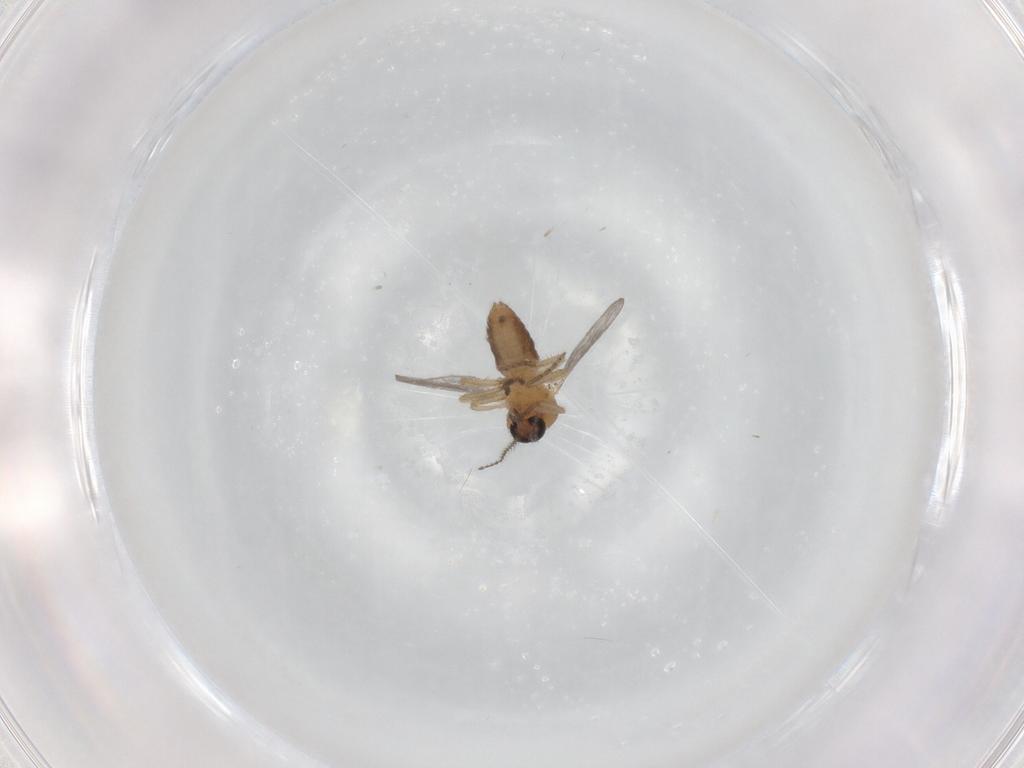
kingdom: Animalia
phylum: Arthropoda
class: Insecta
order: Diptera
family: Ceratopogonidae
